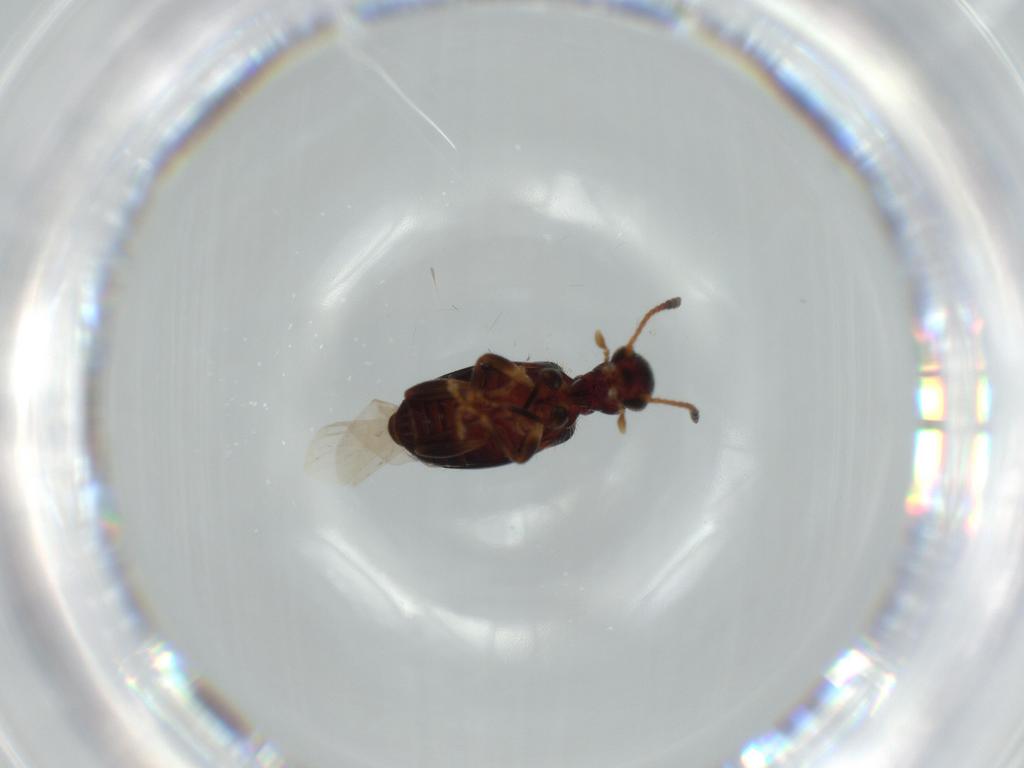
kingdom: Animalia
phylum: Arthropoda
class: Insecta
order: Coleoptera
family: Anthicidae
